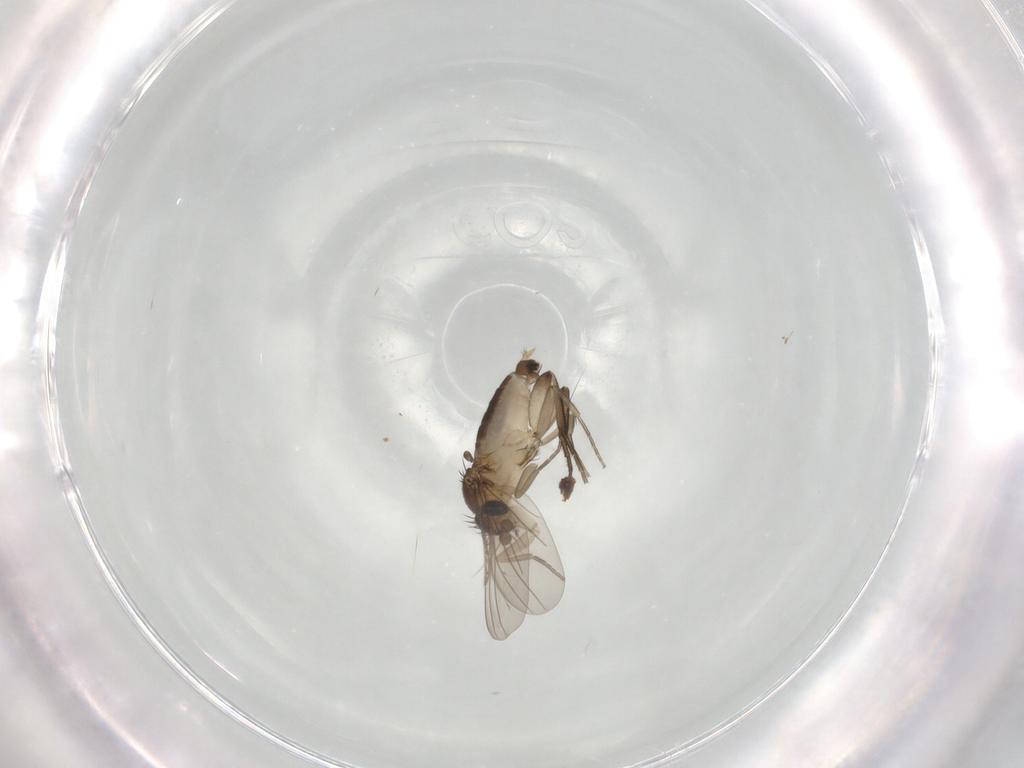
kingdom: Animalia
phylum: Arthropoda
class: Insecta
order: Diptera
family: Phoridae
